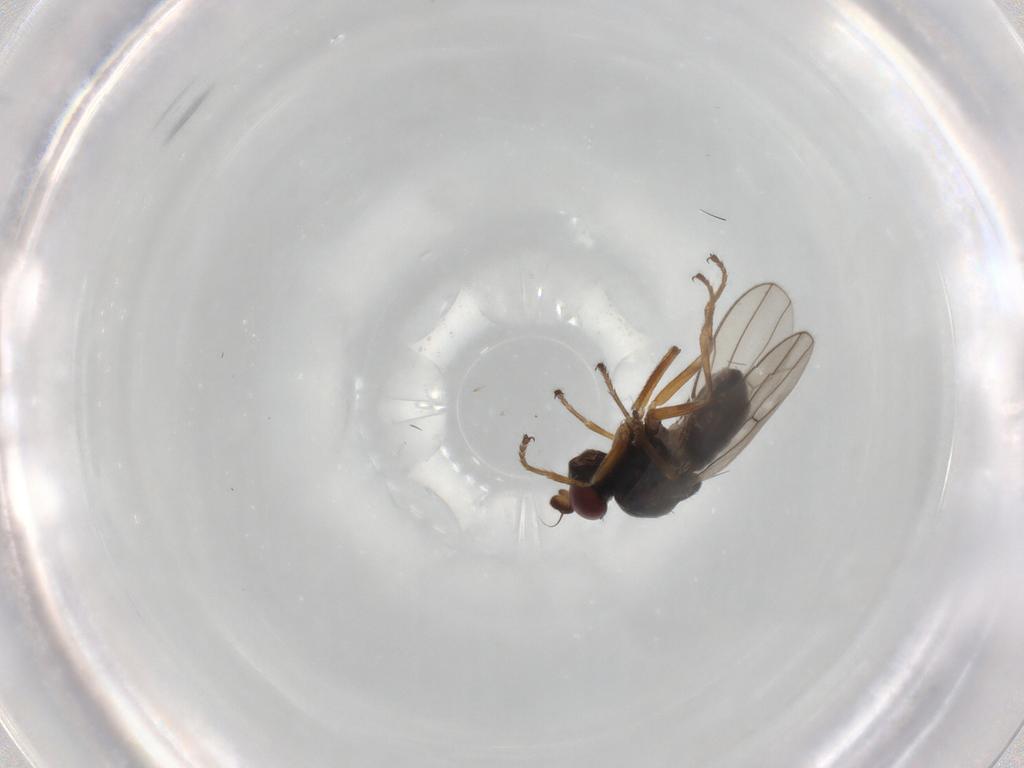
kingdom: Animalia
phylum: Arthropoda
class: Insecta
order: Diptera
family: Ephydridae
